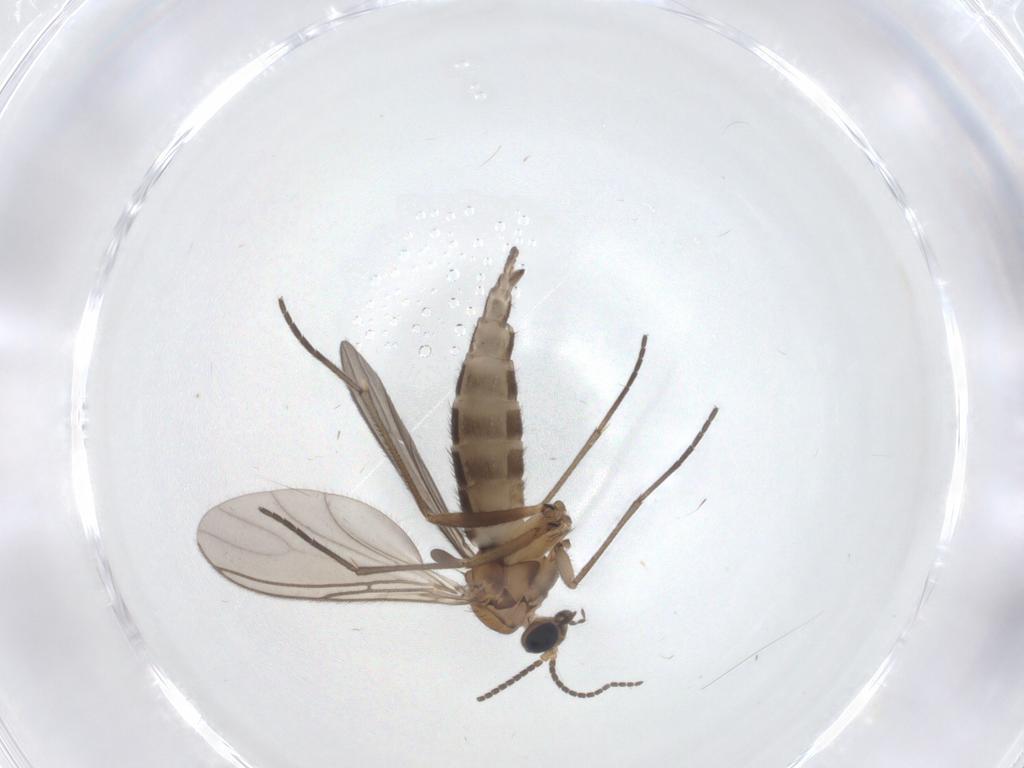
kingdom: Animalia
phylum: Arthropoda
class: Insecta
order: Diptera
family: Sciaridae
